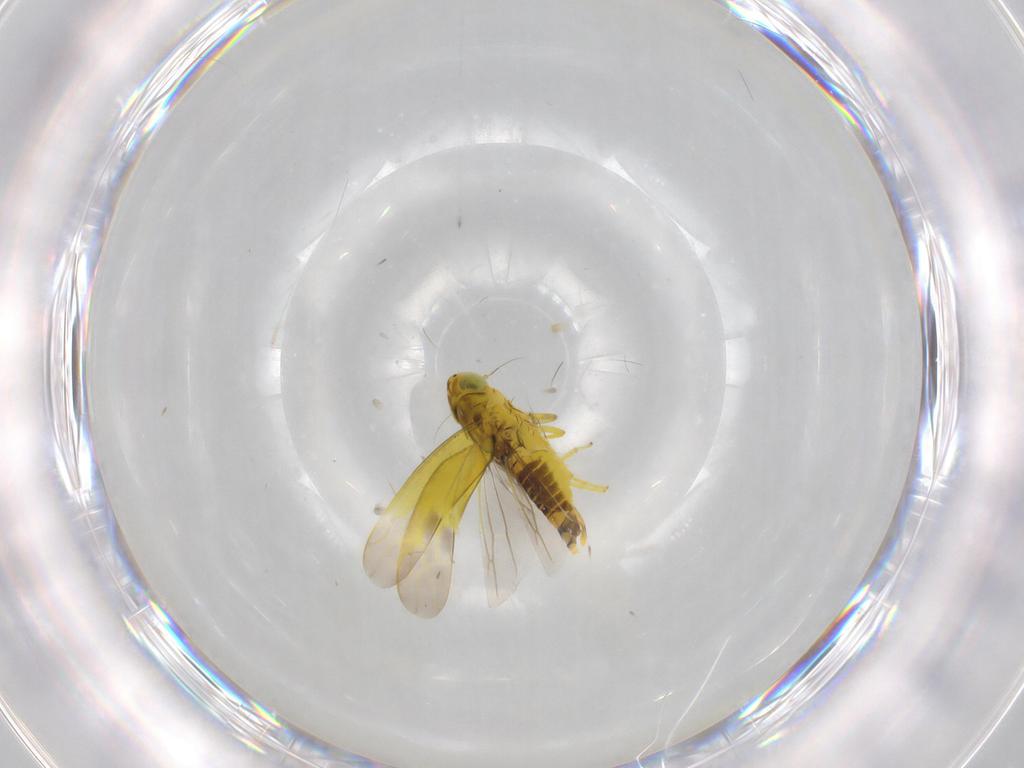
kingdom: Animalia
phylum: Arthropoda
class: Insecta
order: Hemiptera
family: Cicadellidae
